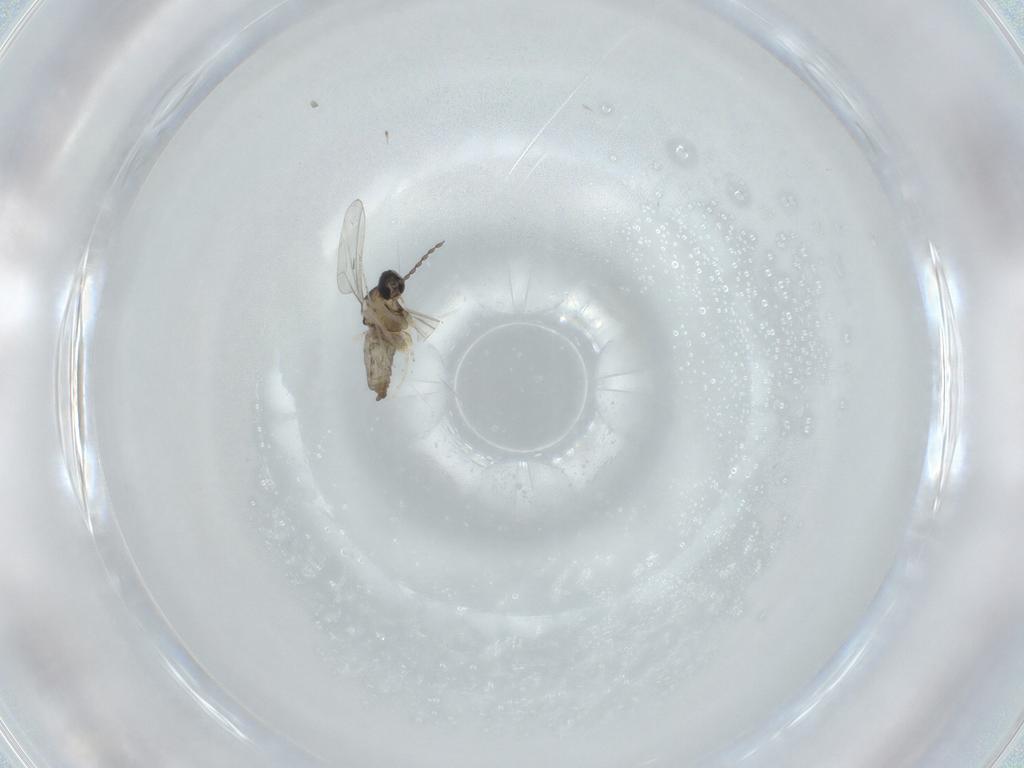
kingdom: Animalia
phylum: Arthropoda
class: Insecta
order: Diptera
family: Cecidomyiidae
